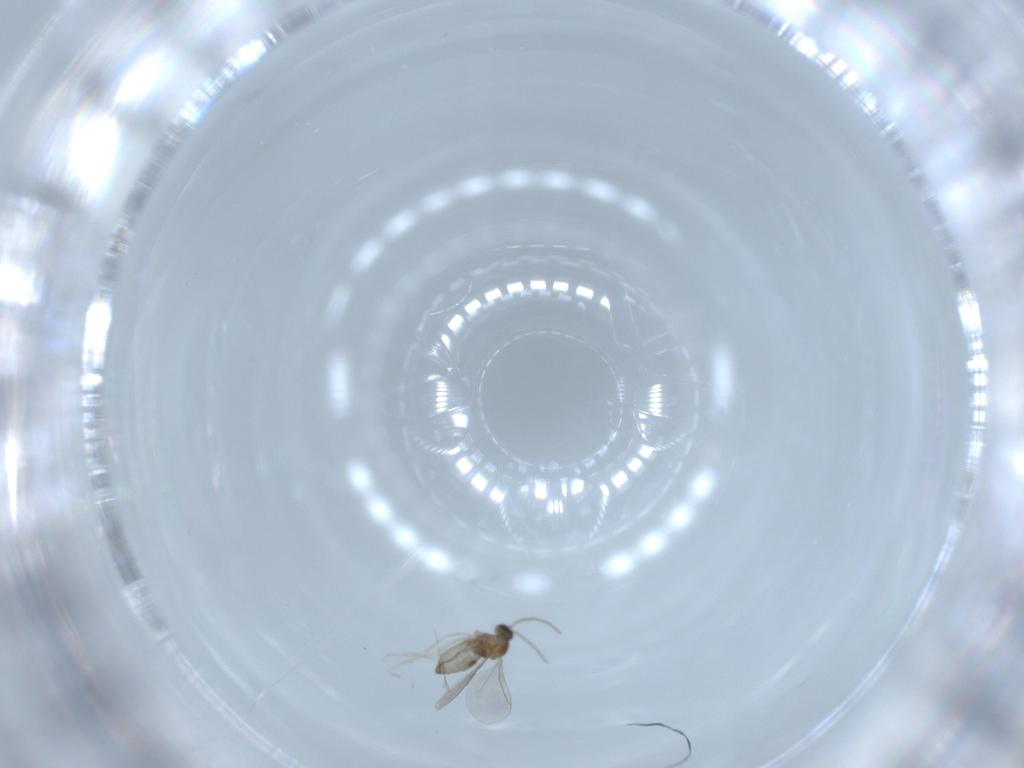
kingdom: Animalia
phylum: Arthropoda
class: Insecta
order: Diptera
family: Cecidomyiidae
